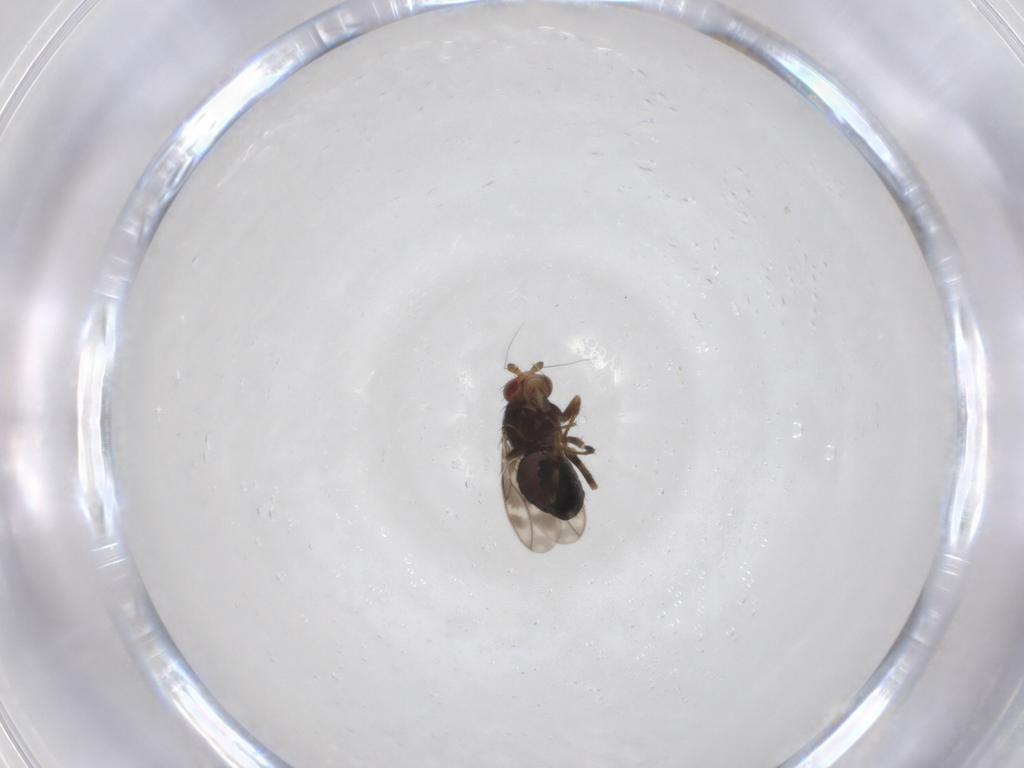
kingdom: Animalia
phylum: Arthropoda
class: Insecta
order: Diptera
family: Sphaeroceridae
